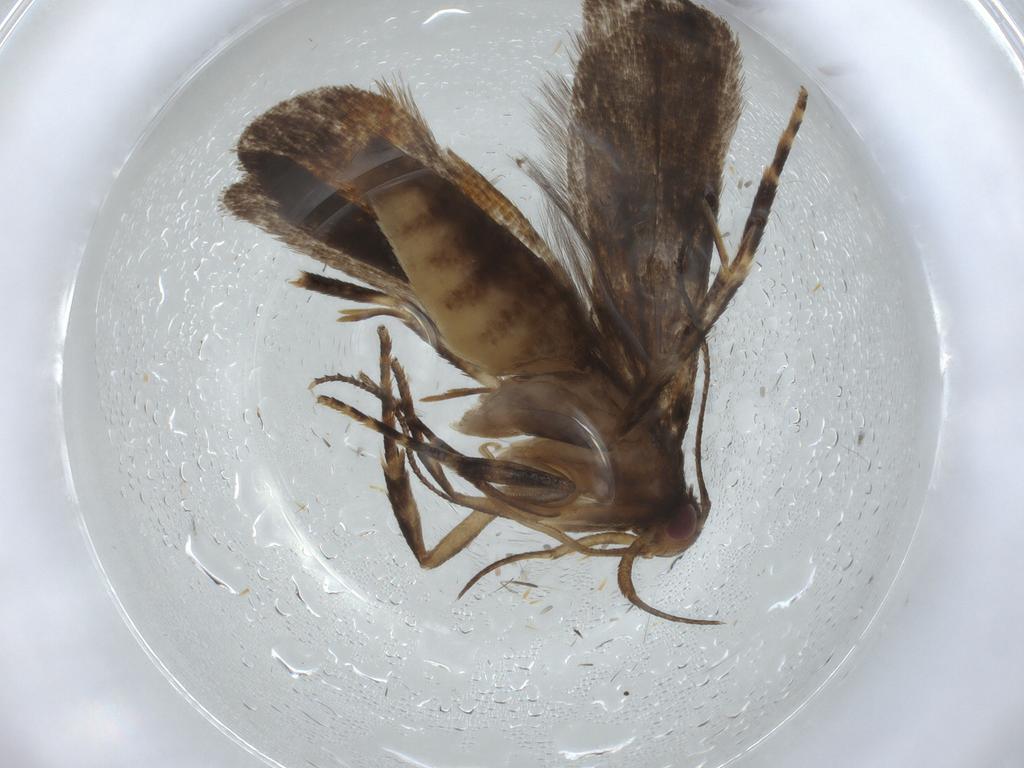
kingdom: Animalia
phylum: Arthropoda
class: Insecta
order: Lepidoptera
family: Gelechiidae
